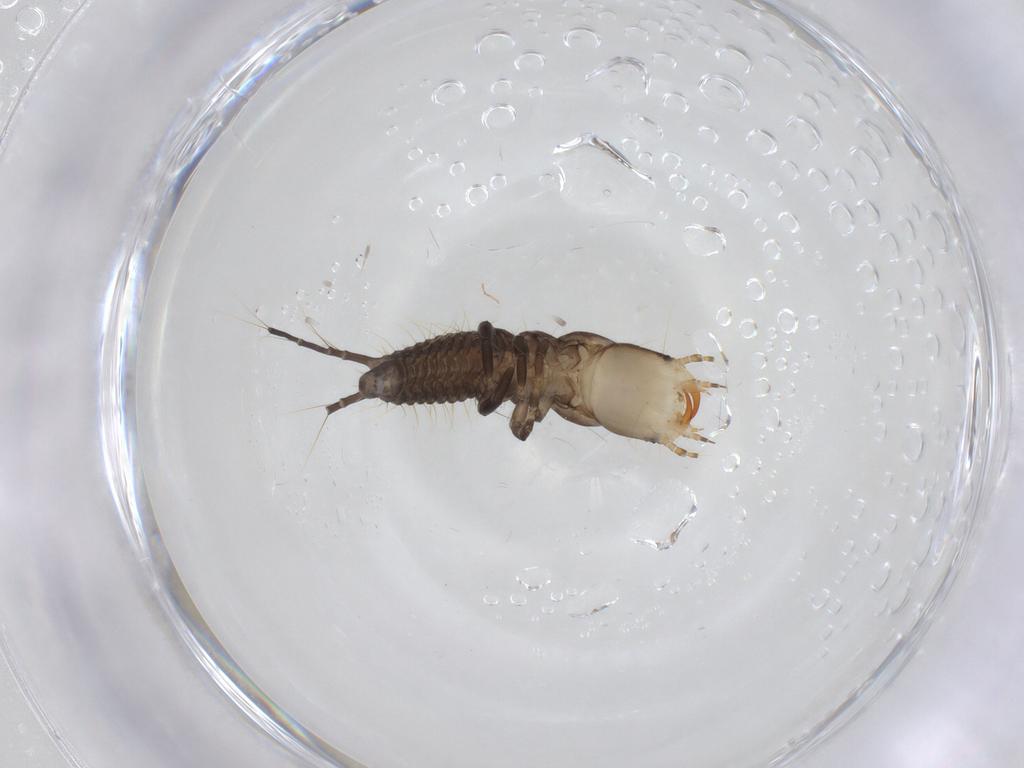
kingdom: Animalia
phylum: Arthropoda
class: Insecta
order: Coleoptera
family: Carabidae
